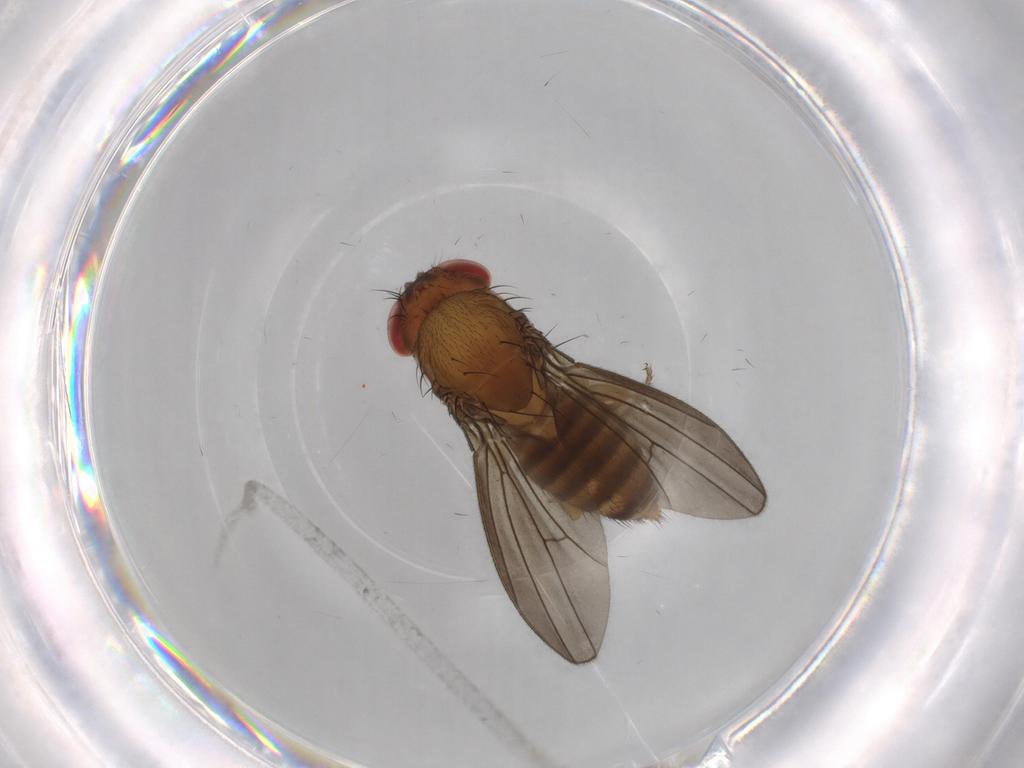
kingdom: Animalia
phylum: Arthropoda
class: Insecta
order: Diptera
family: Drosophilidae
